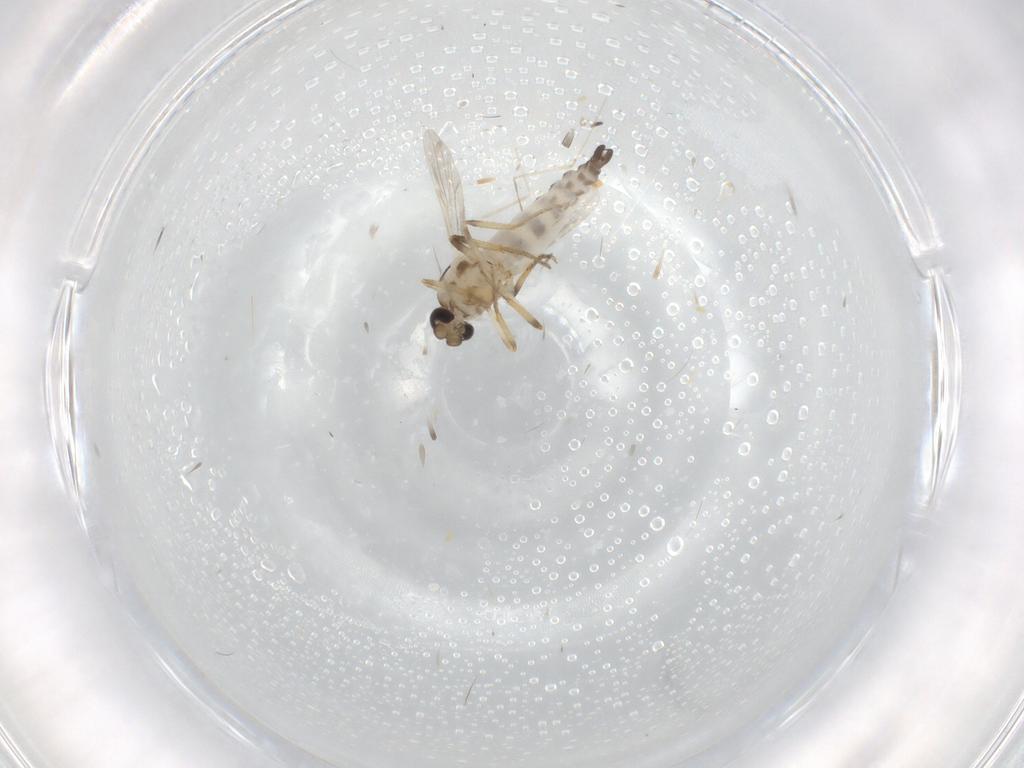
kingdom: Animalia
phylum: Arthropoda
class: Insecta
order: Diptera
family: Ceratopogonidae
